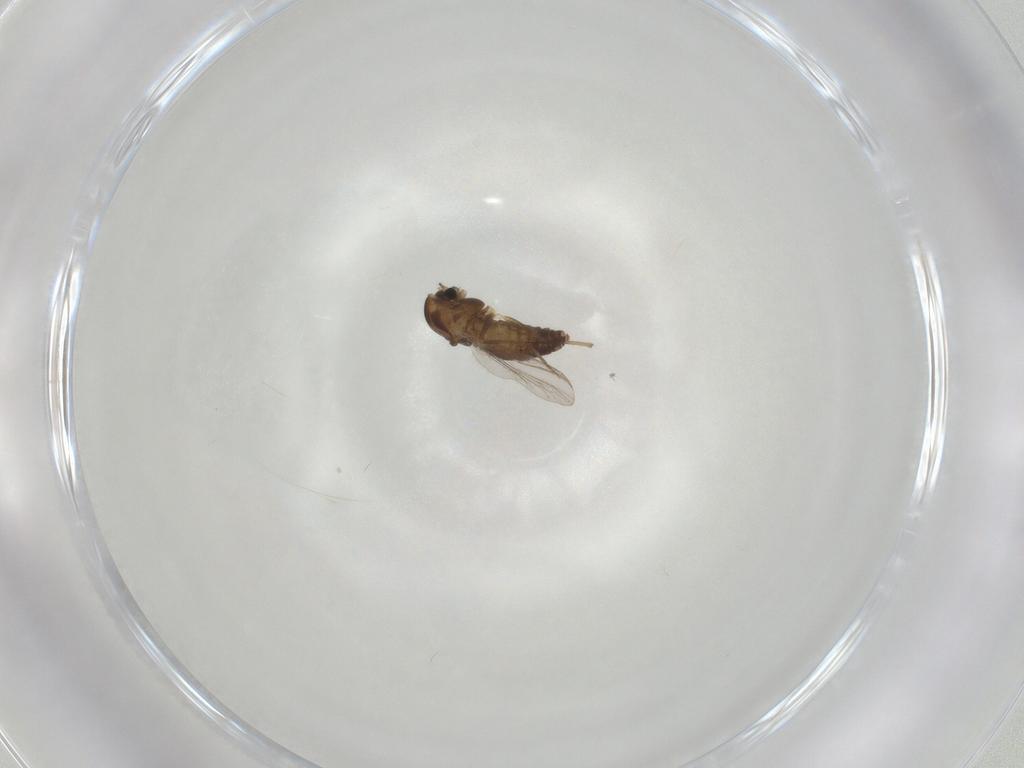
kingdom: Animalia
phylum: Arthropoda
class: Insecta
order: Diptera
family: Chironomidae
